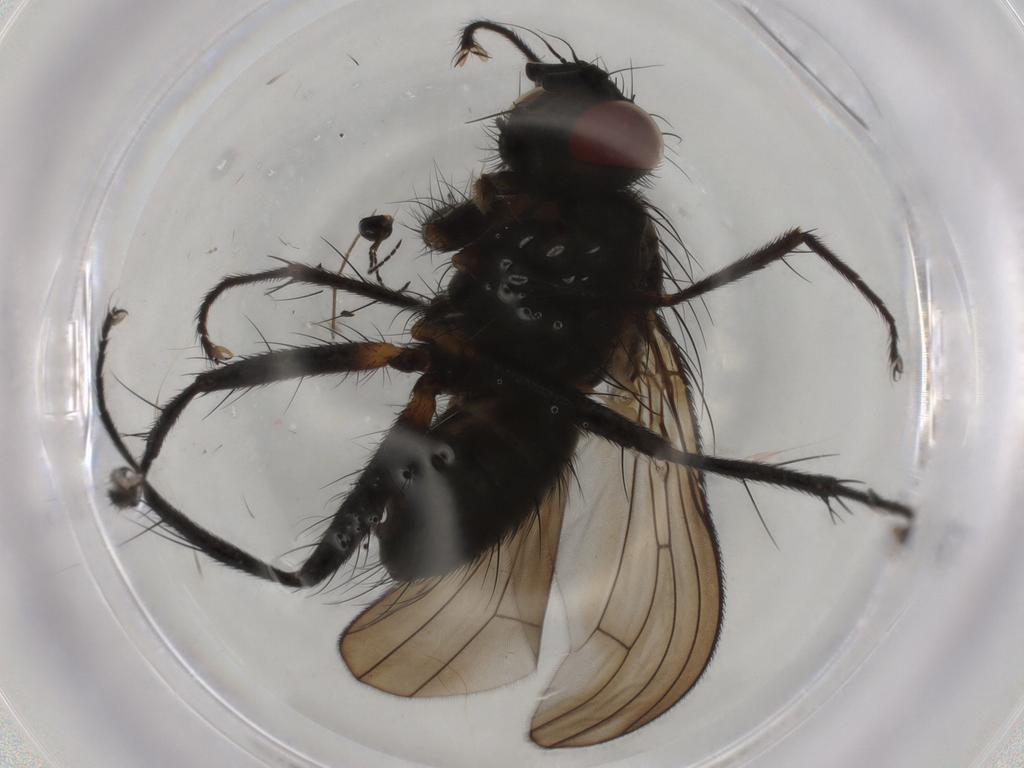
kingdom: Animalia
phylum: Arthropoda
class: Insecta
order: Diptera
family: Muscidae
